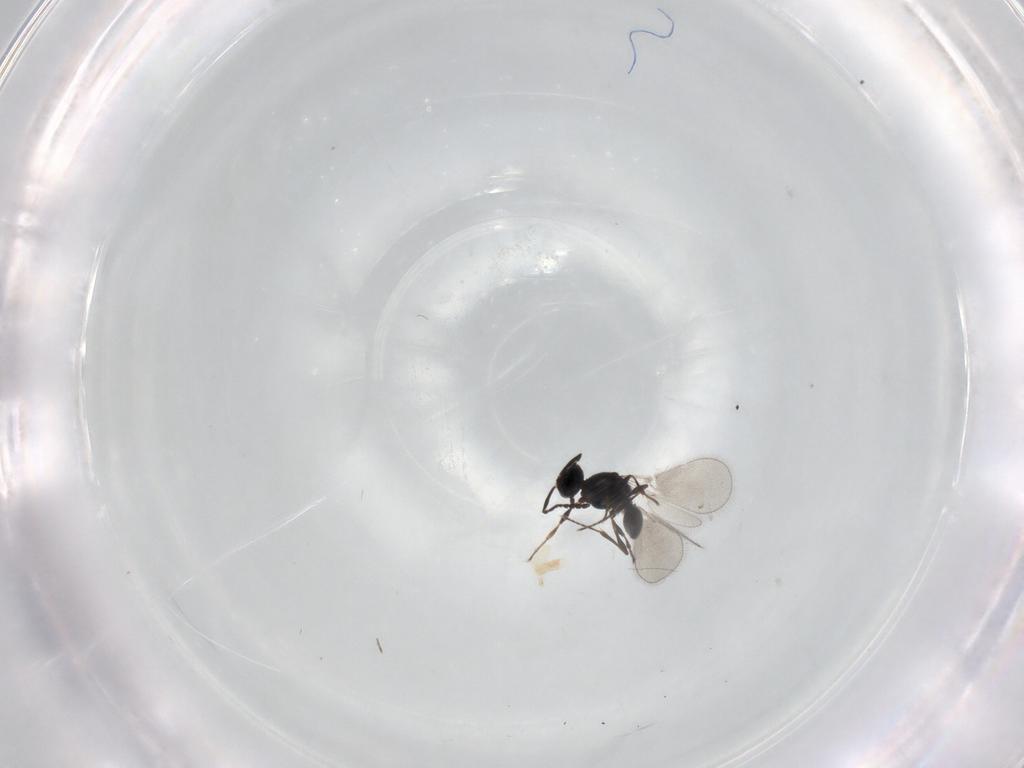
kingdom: Animalia
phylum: Arthropoda
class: Insecta
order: Hymenoptera
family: Platygastridae
